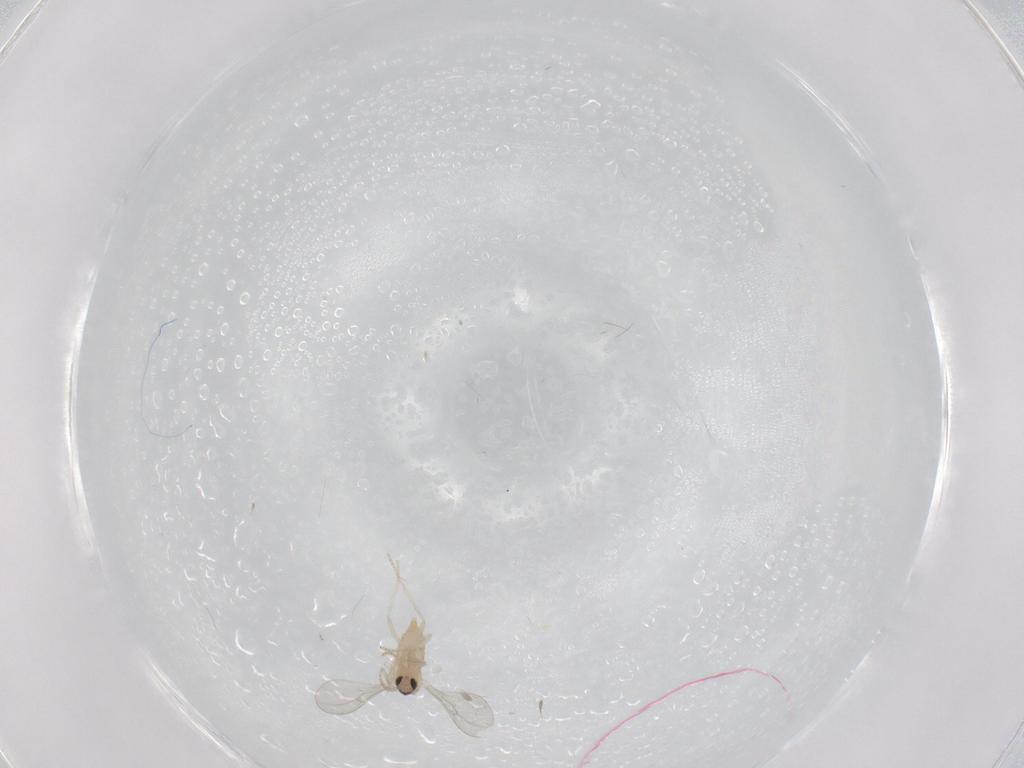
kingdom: Animalia
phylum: Arthropoda
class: Insecta
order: Diptera
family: Cecidomyiidae
